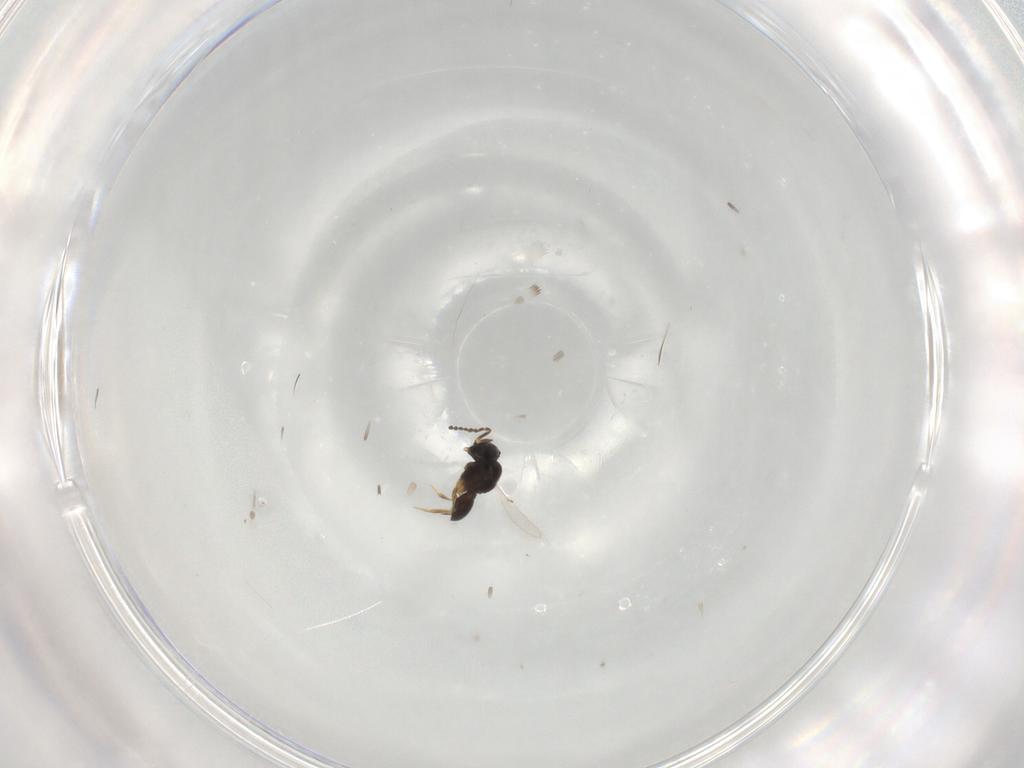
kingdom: Animalia
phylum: Arthropoda
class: Insecta
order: Hymenoptera
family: Scelionidae
